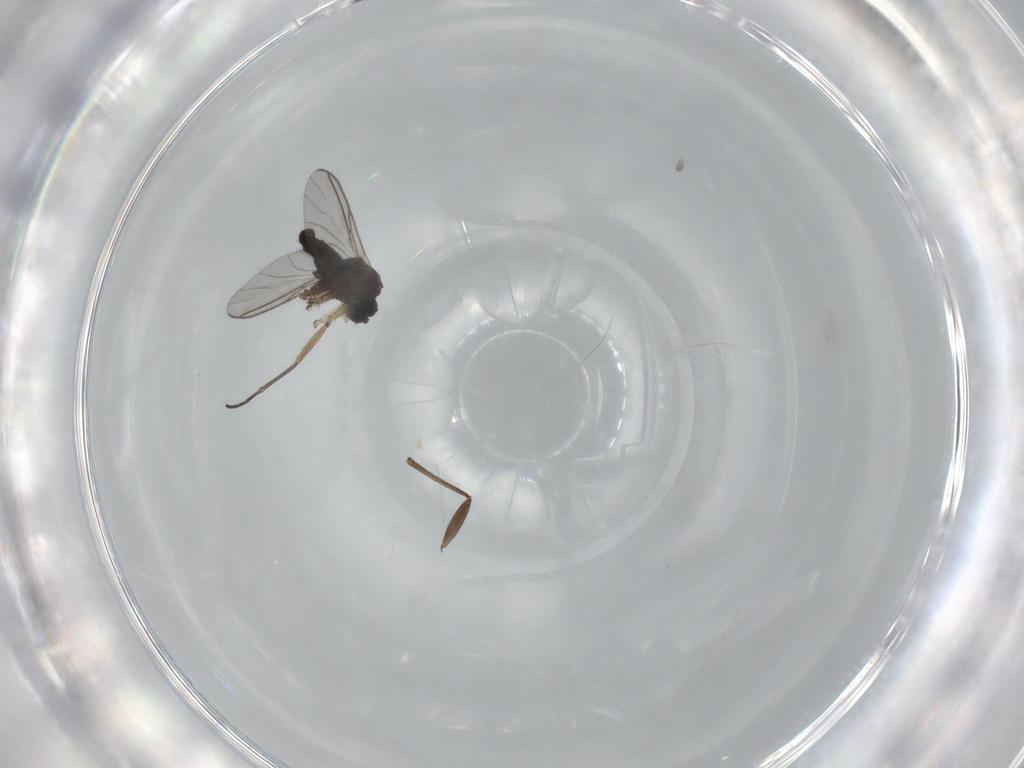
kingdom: Animalia
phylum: Arthropoda
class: Insecta
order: Diptera
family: Sciaridae
